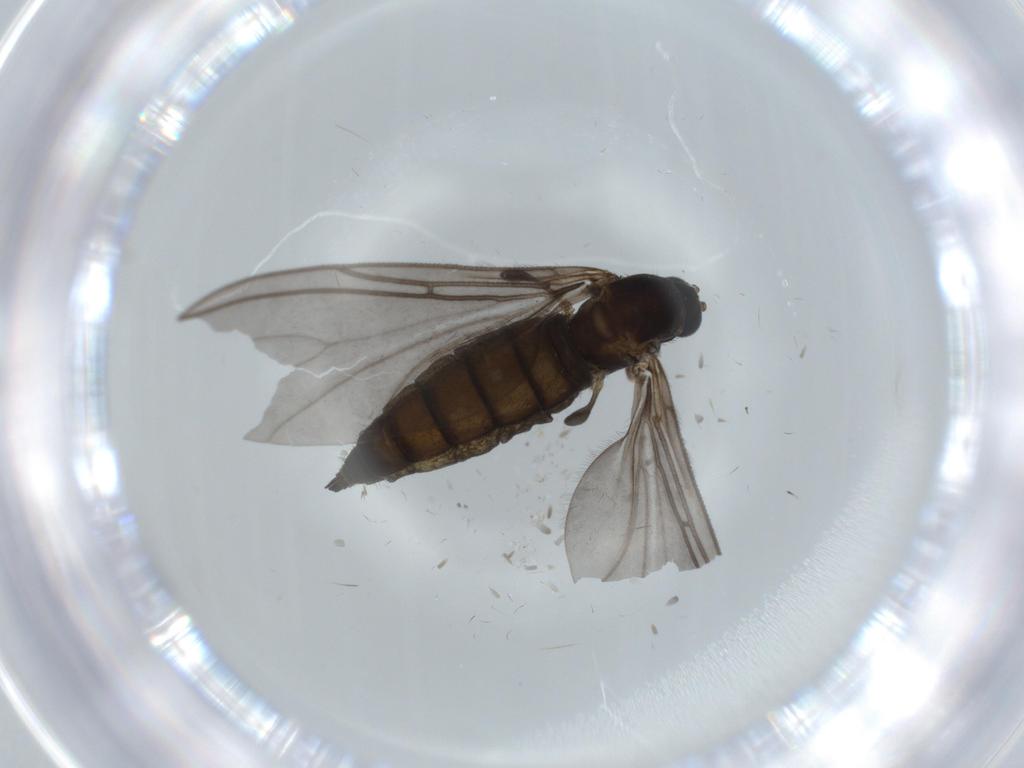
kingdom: Animalia
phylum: Arthropoda
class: Insecta
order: Diptera
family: Sciaridae
